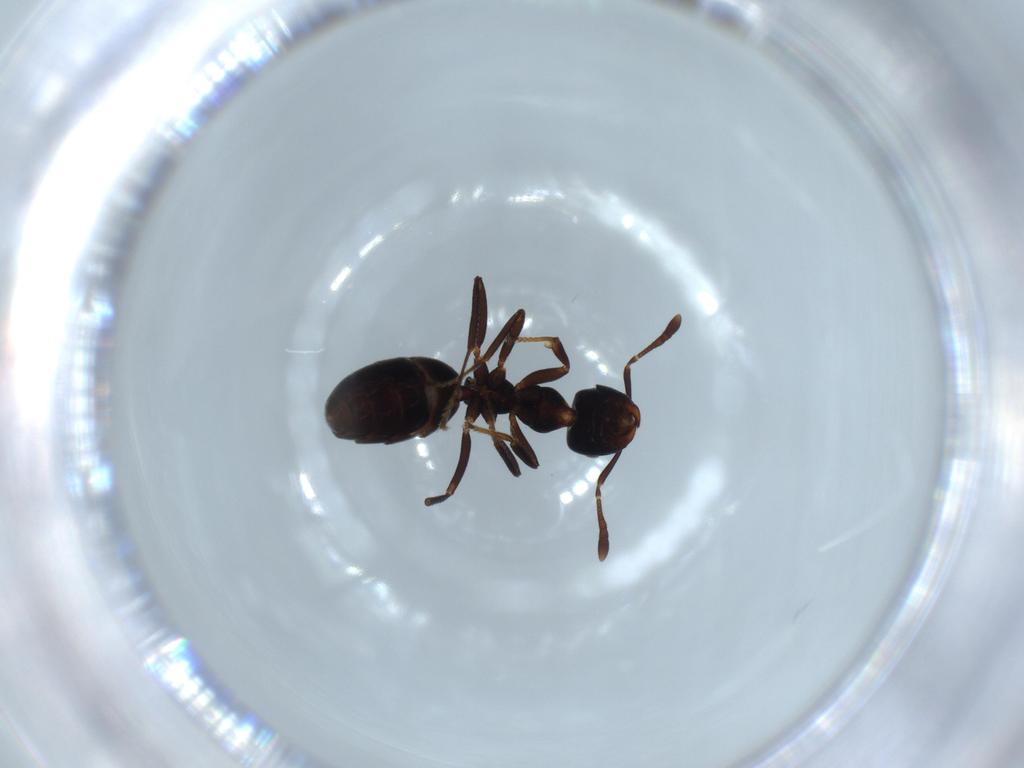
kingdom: Animalia
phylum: Arthropoda
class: Insecta
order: Hymenoptera
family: Formicidae
